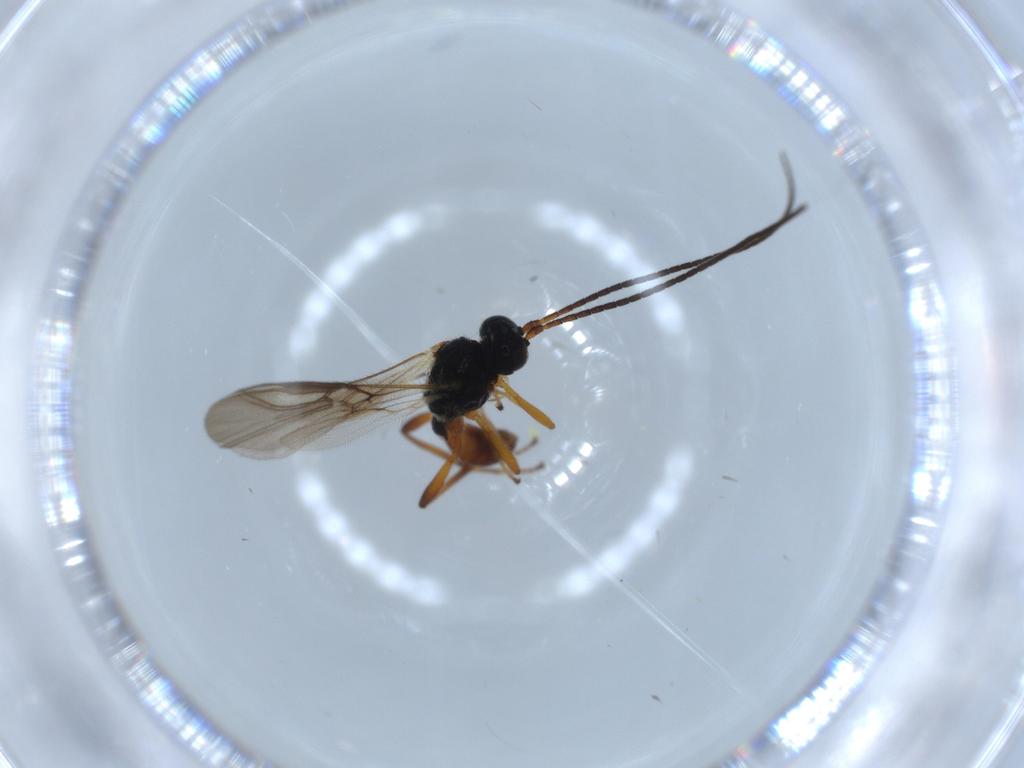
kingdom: Animalia
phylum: Arthropoda
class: Insecta
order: Hymenoptera
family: Braconidae
